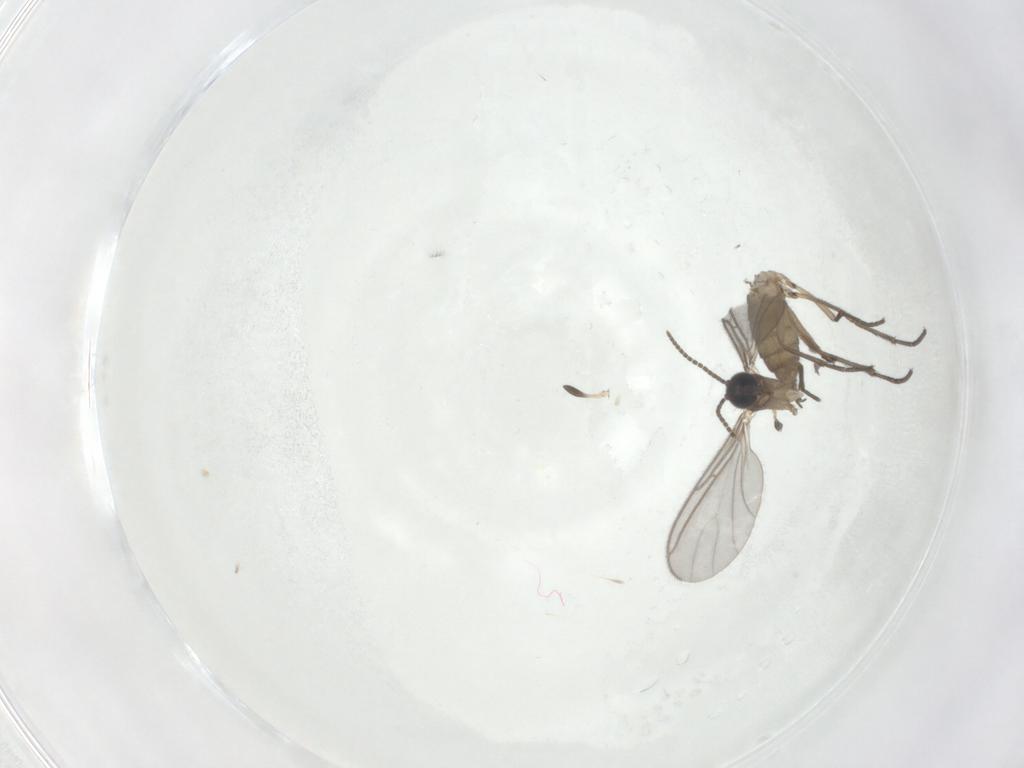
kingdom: Animalia
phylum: Arthropoda
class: Insecta
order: Diptera
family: Sciaridae
